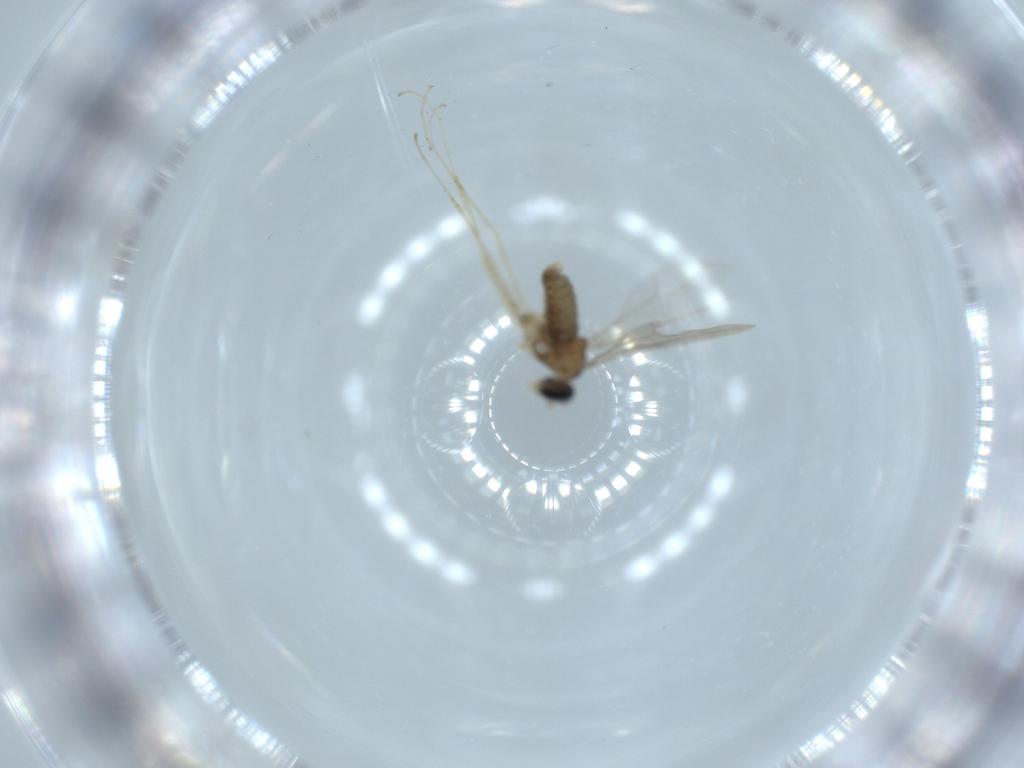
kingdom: Animalia
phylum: Arthropoda
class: Insecta
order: Diptera
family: Cecidomyiidae
